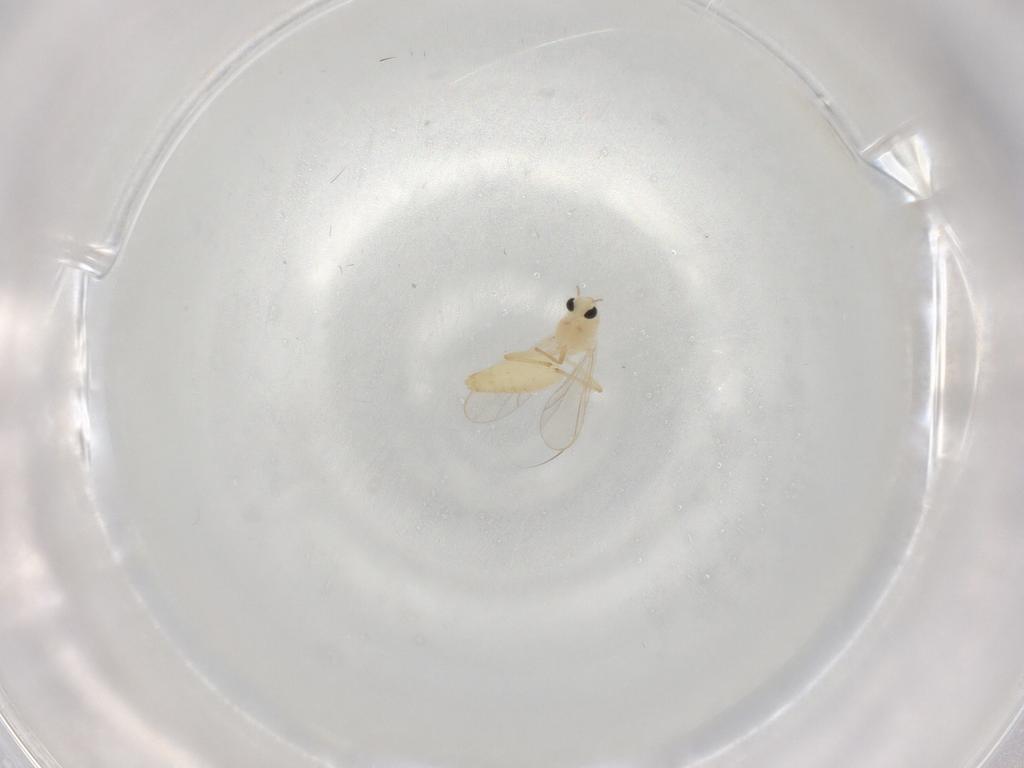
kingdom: Animalia
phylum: Arthropoda
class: Insecta
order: Diptera
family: Chironomidae
